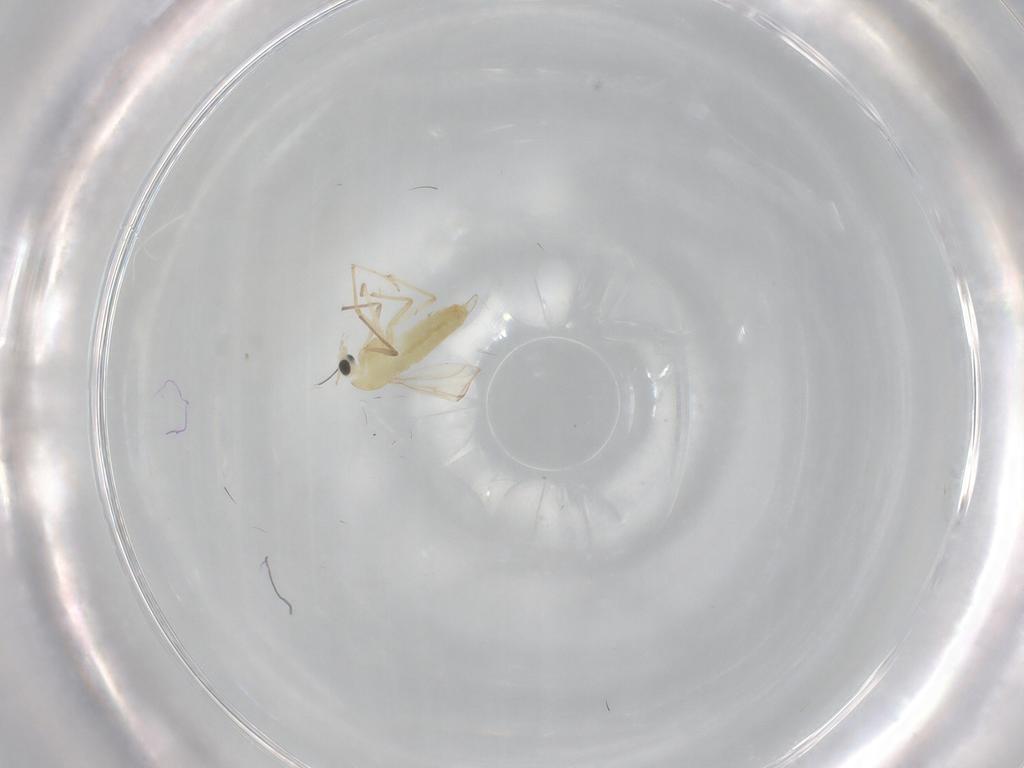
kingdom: Animalia
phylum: Arthropoda
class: Insecta
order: Diptera
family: Chironomidae
